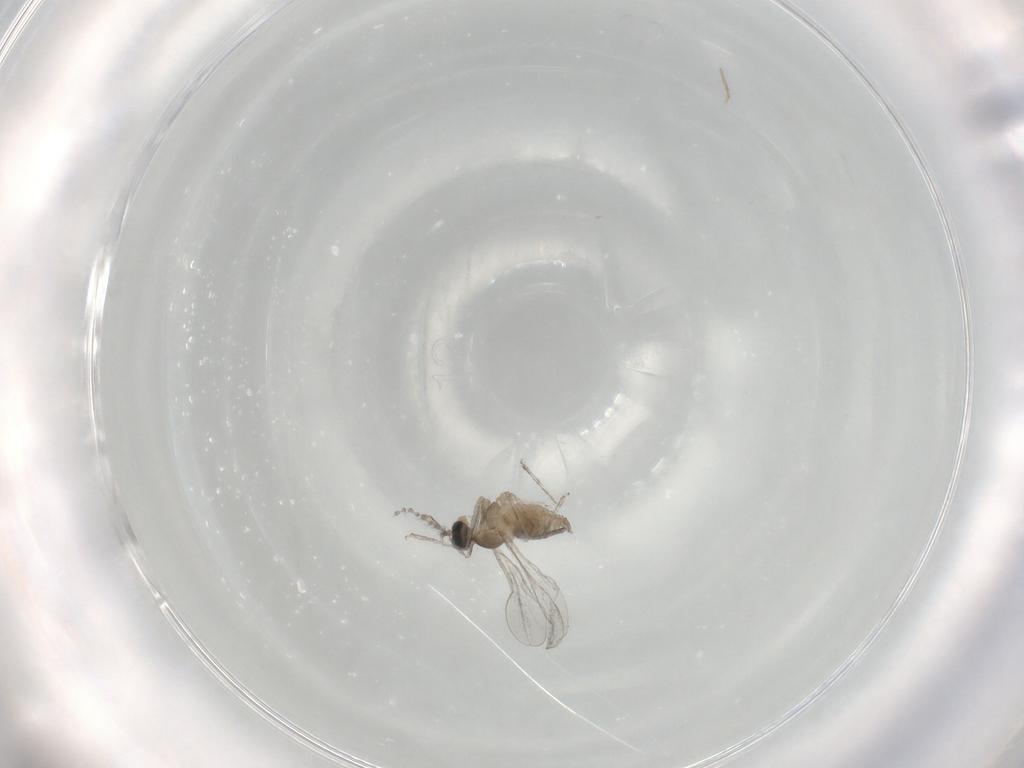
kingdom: Animalia
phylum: Arthropoda
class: Insecta
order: Diptera
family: Cecidomyiidae
